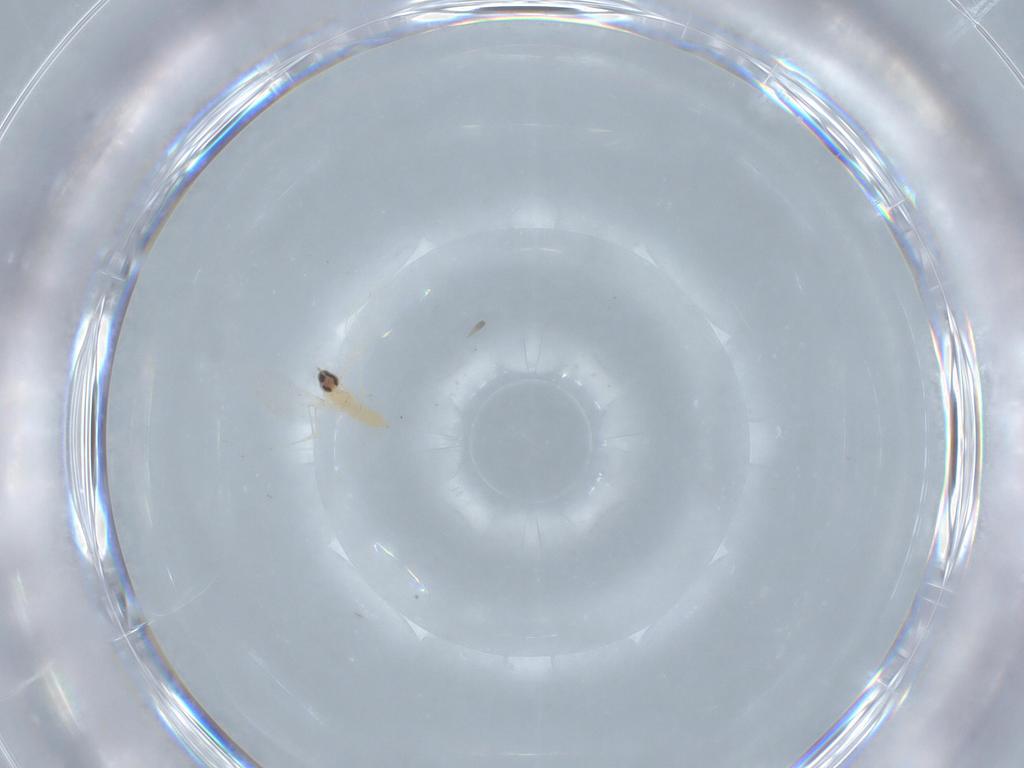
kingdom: Animalia
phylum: Arthropoda
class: Insecta
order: Diptera
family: Cecidomyiidae
